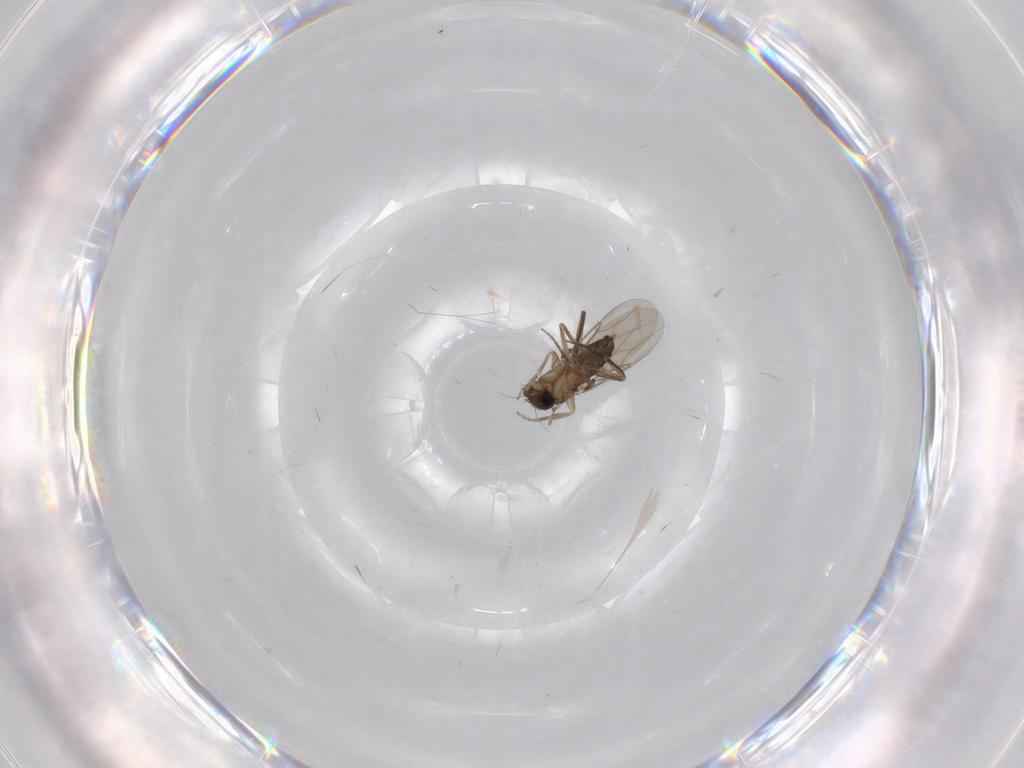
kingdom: Animalia
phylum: Arthropoda
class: Insecta
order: Diptera
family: Phoridae
